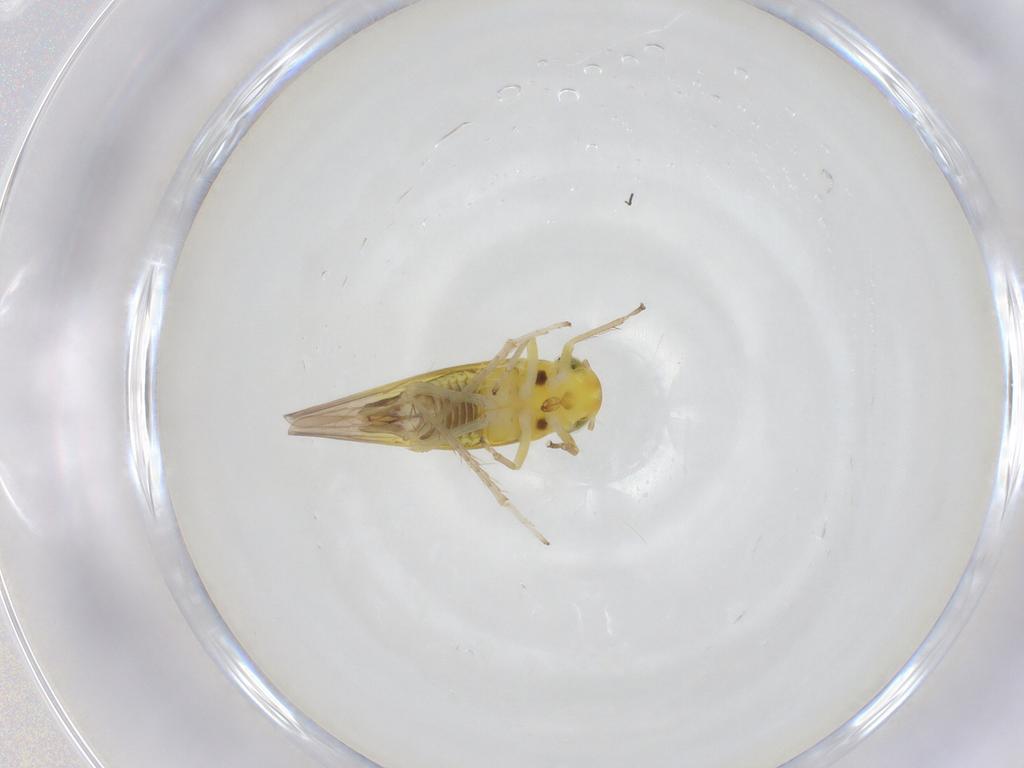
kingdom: Animalia
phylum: Arthropoda
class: Insecta
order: Hemiptera
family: Cicadellidae
